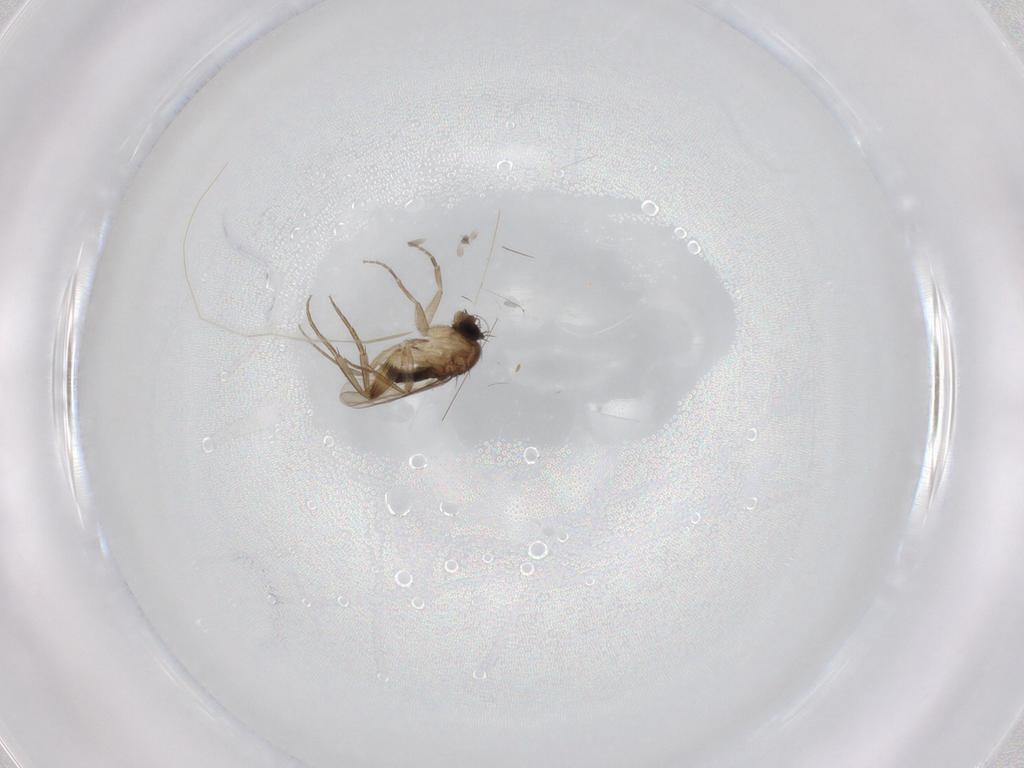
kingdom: Animalia
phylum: Arthropoda
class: Insecta
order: Diptera
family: Phoridae
